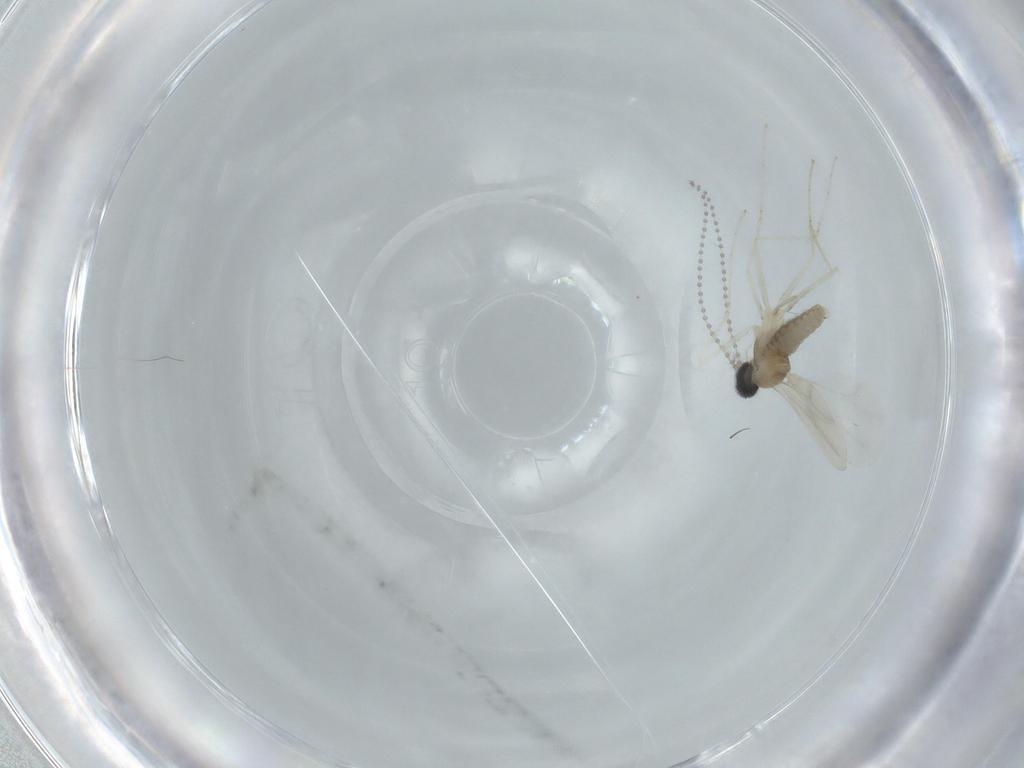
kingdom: Animalia
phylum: Arthropoda
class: Insecta
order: Diptera
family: Cecidomyiidae
